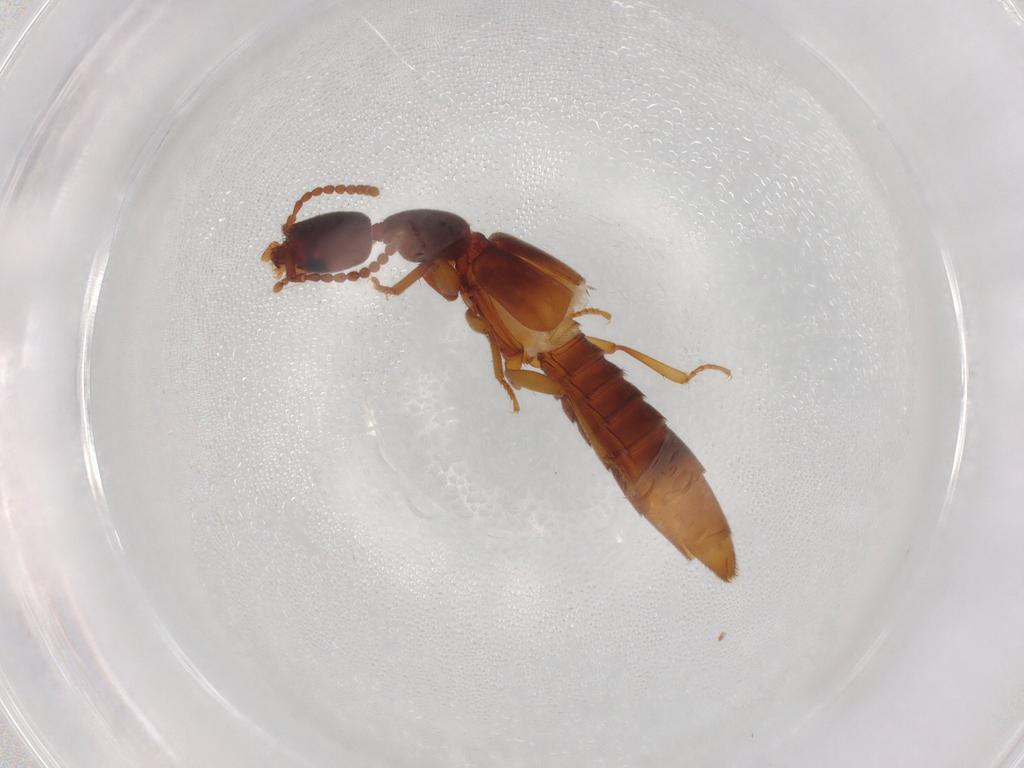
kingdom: Animalia
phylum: Arthropoda
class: Insecta
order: Coleoptera
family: Staphylinidae
